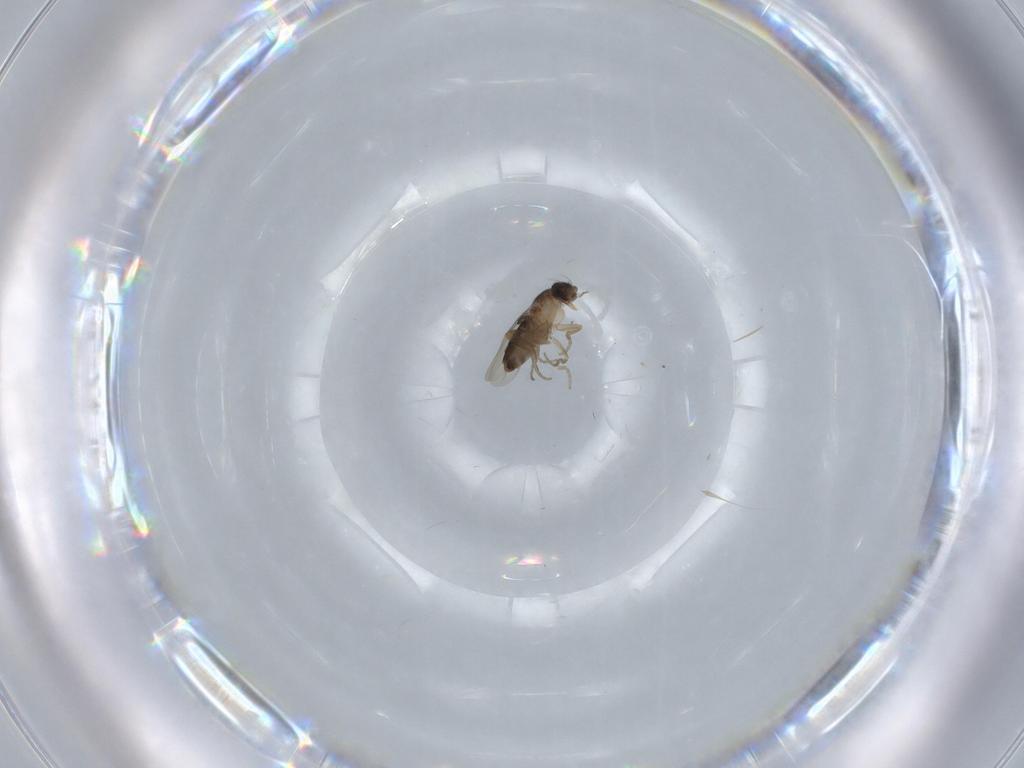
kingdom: Animalia
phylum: Arthropoda
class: Insecta
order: Diptera
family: Phoridae
